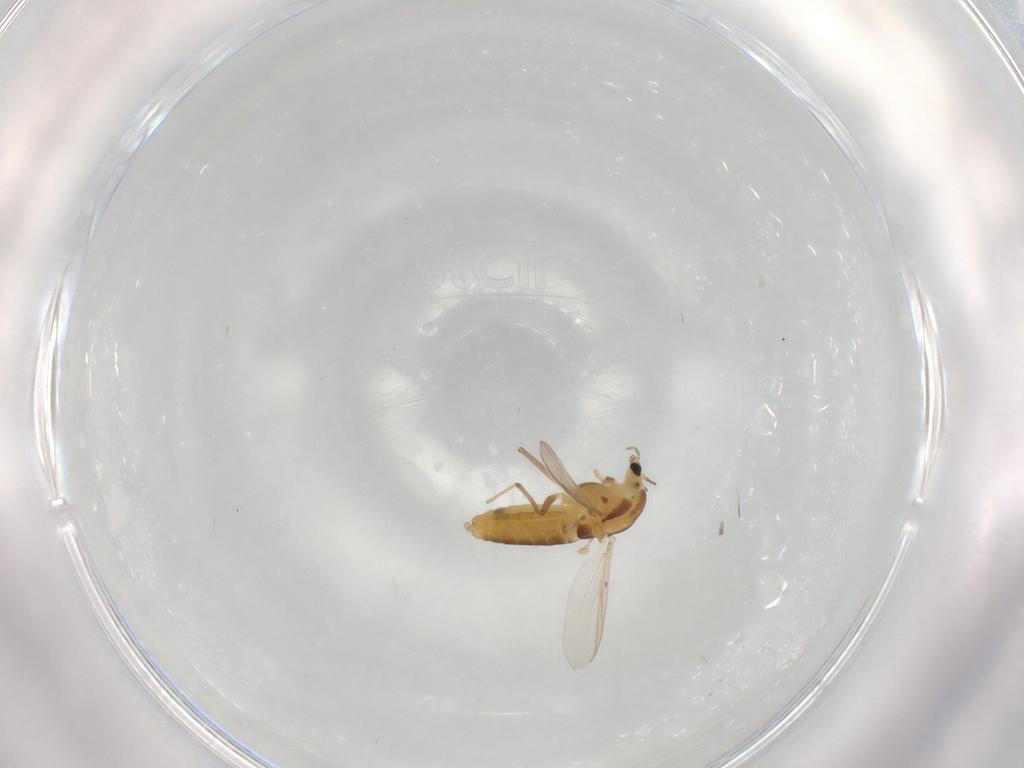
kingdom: Animalia
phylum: Arthropoda
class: Insecta
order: Diptera
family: Chironomidae
